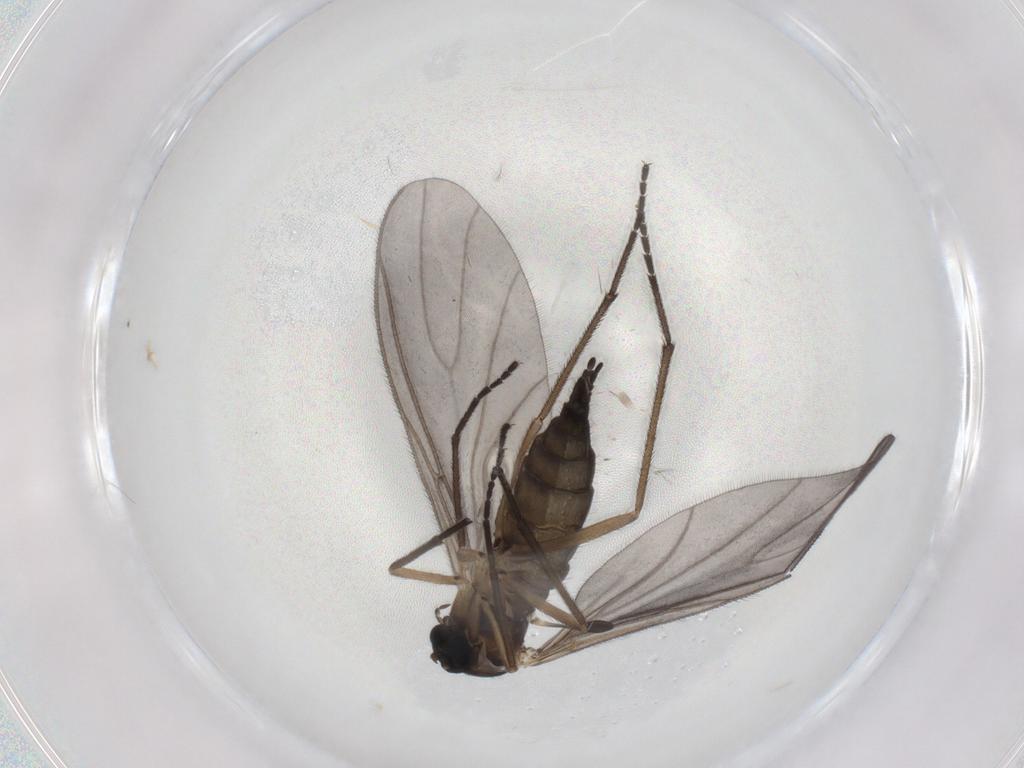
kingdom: Animalia
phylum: Arthropoda
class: Insecta
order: Diptera
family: Sciaridae
